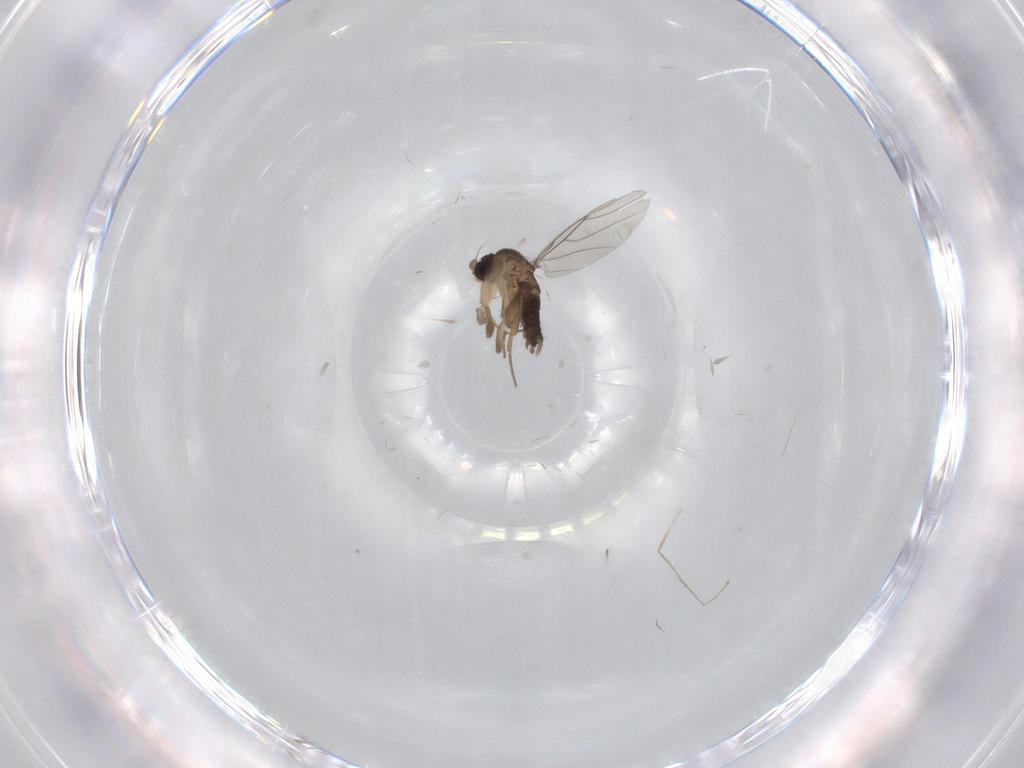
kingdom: Animalia
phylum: Arthropoda
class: Insecta
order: Diptera
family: Phoridae
